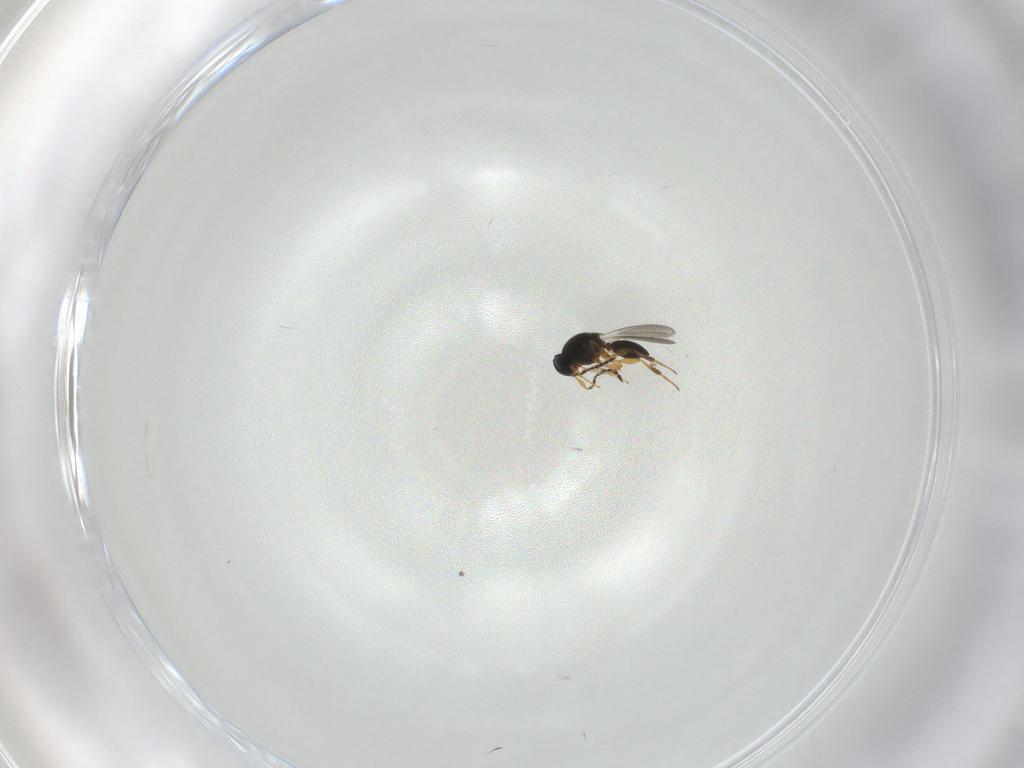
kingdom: Animalia
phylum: Arthropoda
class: Insecta
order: Hymenoptera
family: Platygastridae
